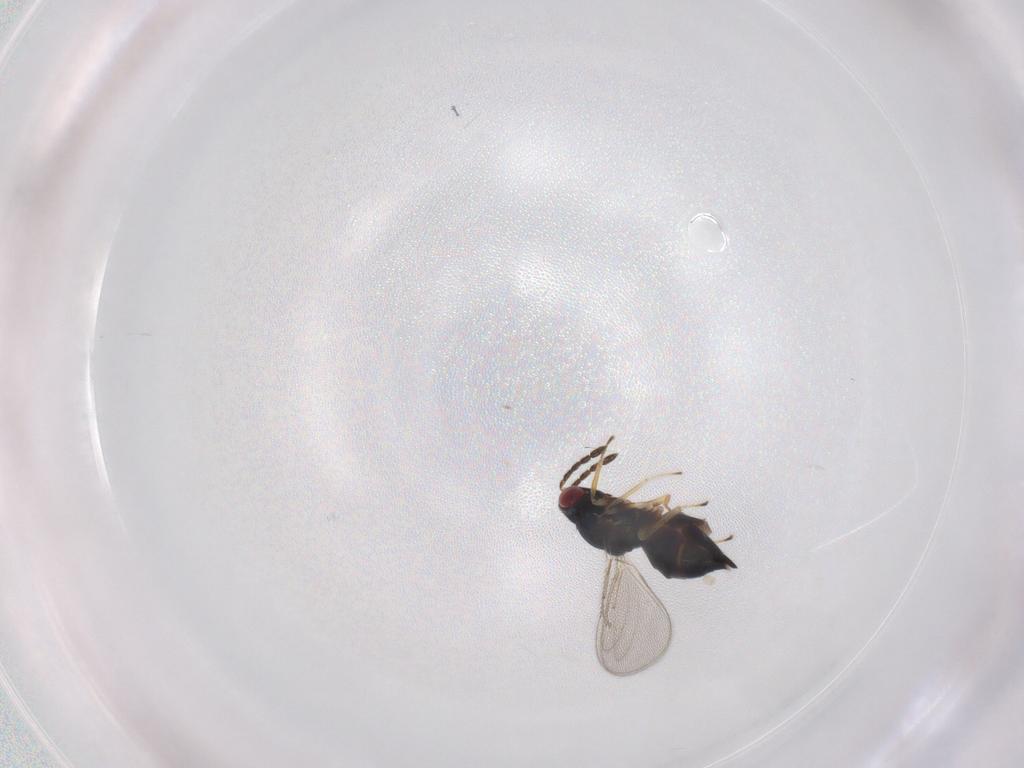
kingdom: Animalia
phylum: Arthropoda
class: Insecta
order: Hymenoptera
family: Eulophidae
